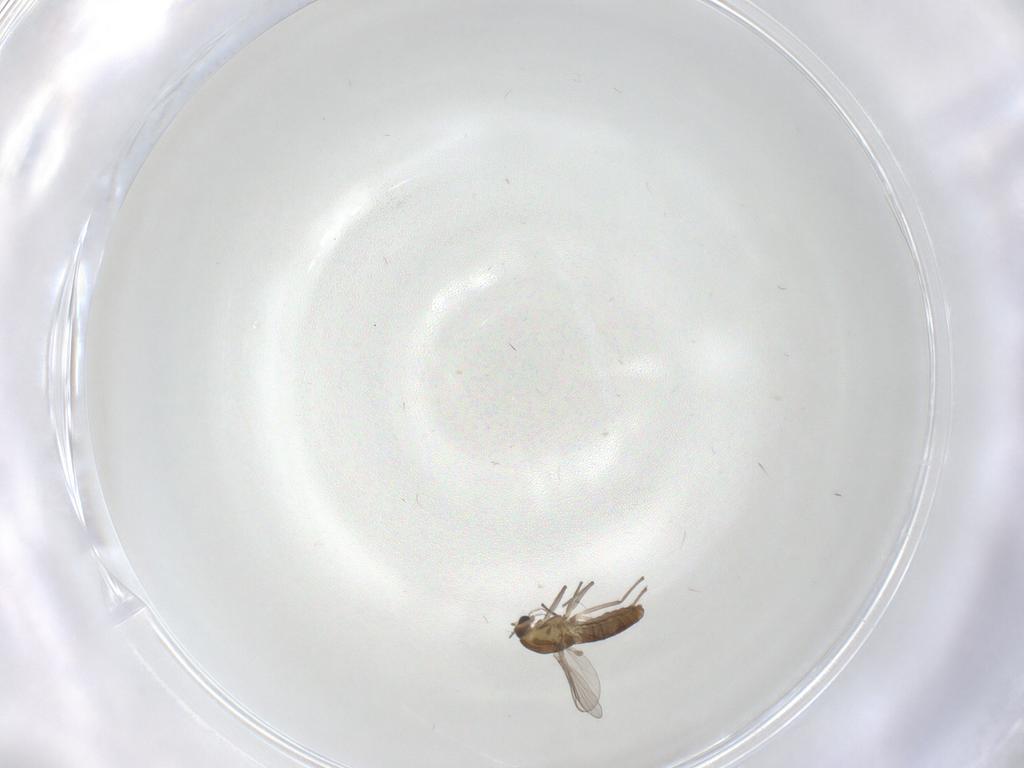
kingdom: Animalia
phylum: Arthropoda
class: Insecta
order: Diptera
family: Chironomidae
